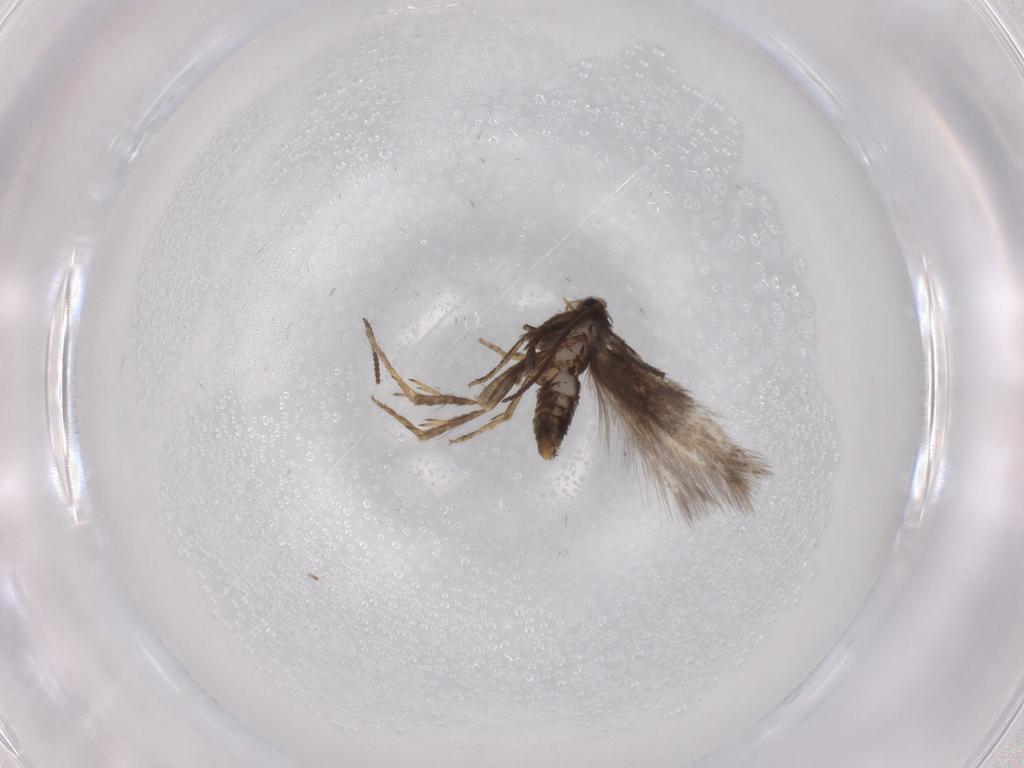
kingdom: Animalia
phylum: Arthropoda
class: Insecta
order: Lepidoptera
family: Nepticulidae
